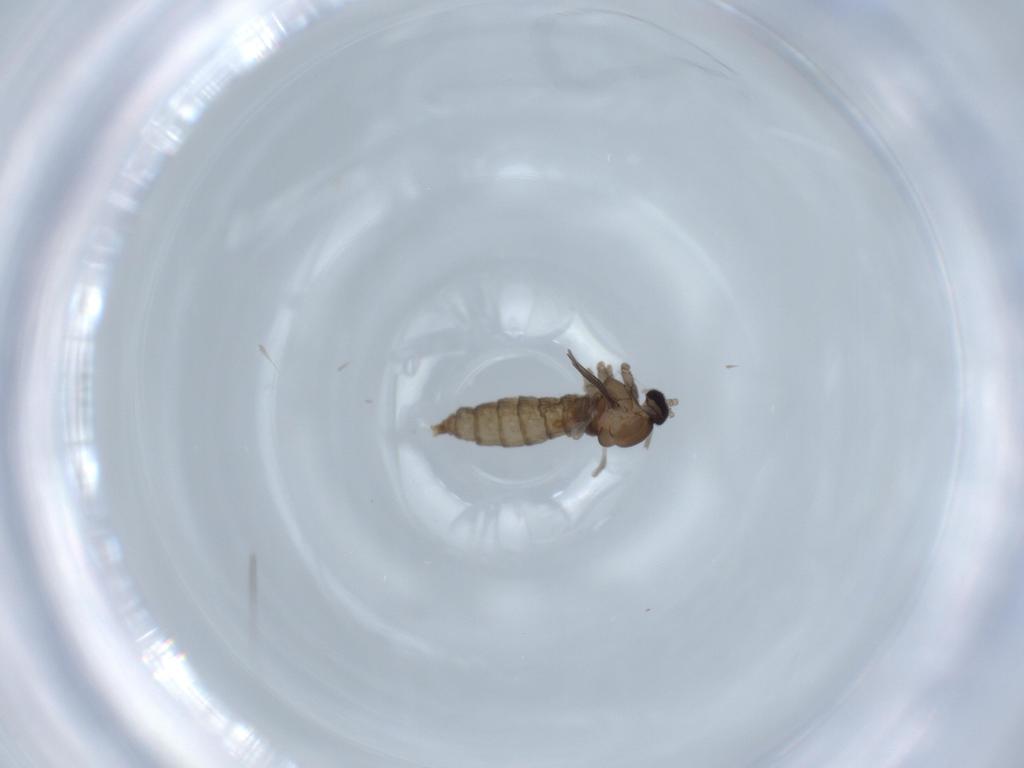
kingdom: Animalia
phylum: Arthropoda
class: Insecta
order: Diptera
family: Cecidomyiidae
